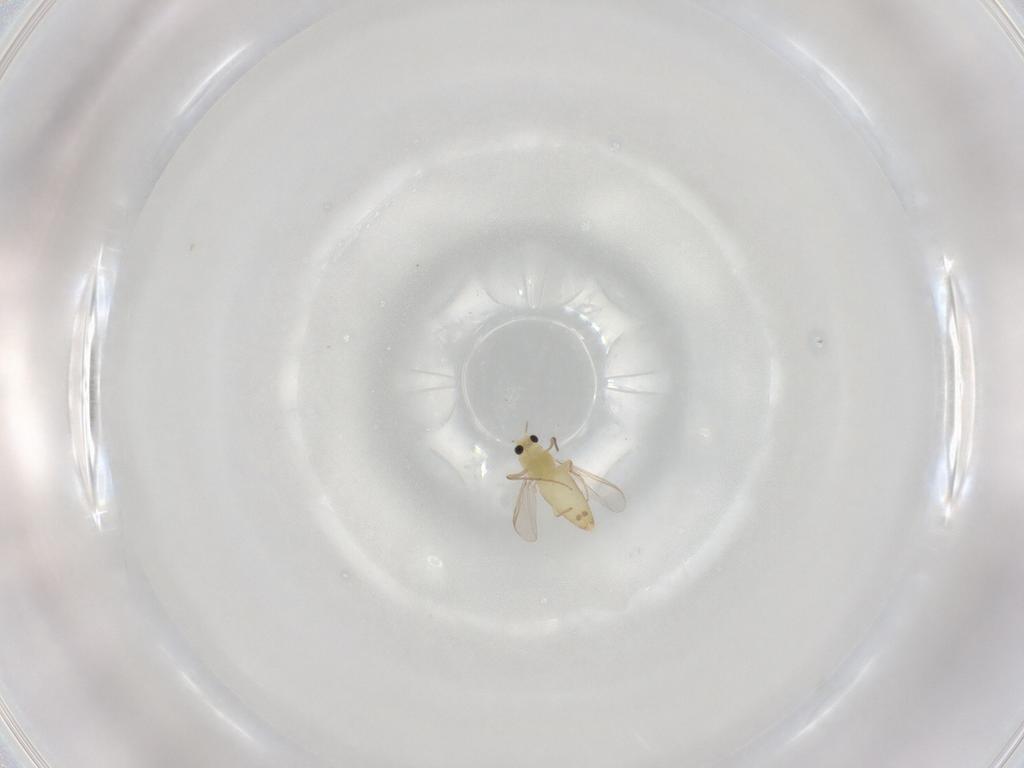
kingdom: Animalia
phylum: Arthropoda
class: Insecta
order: Diptera
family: Chironomidae
